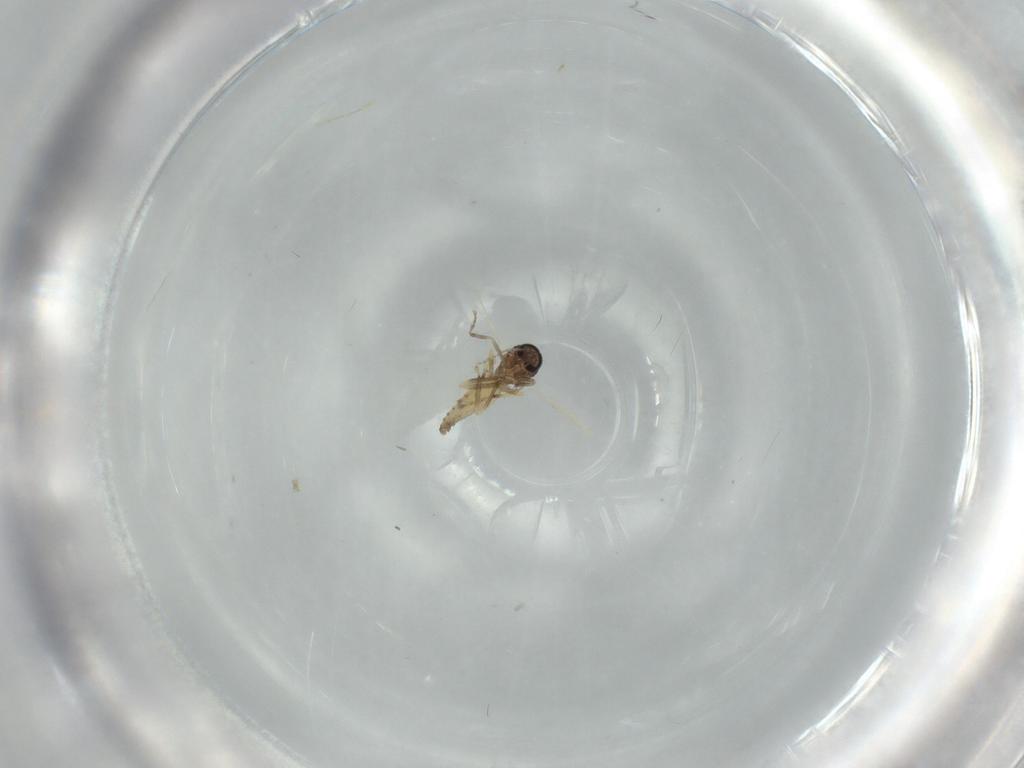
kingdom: Animalia
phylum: Arthropoda
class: Insecta
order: Diptera
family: Ceratopogonidae
